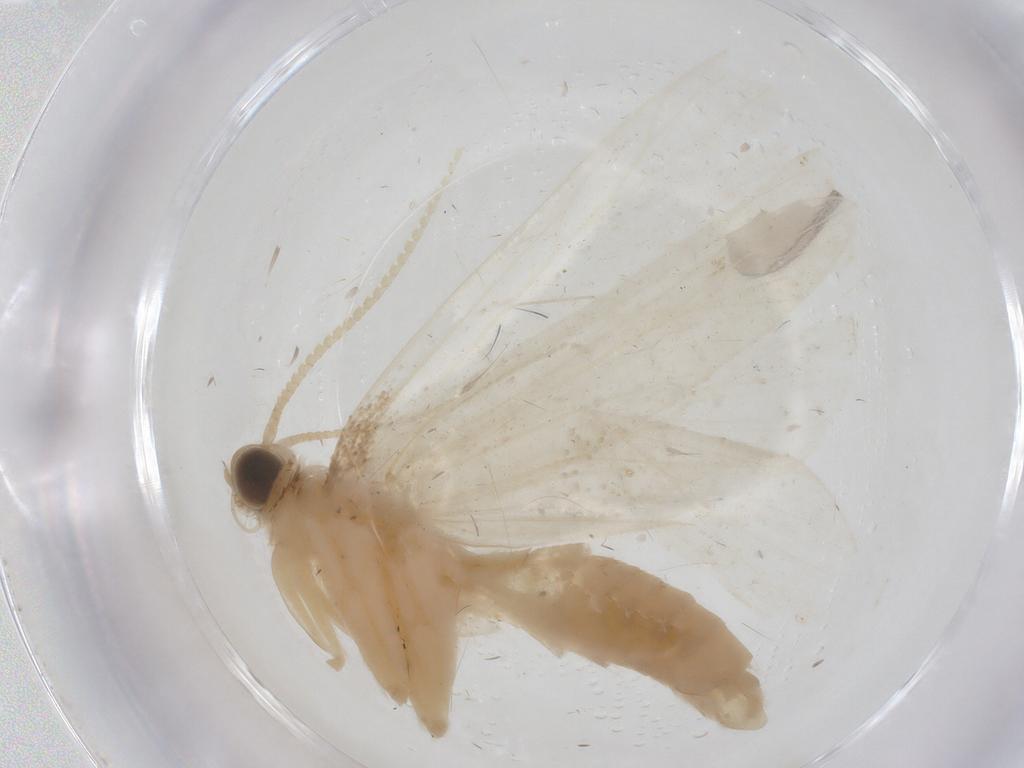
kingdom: Animalia
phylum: Arthropoda
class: Insecta
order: Lepidoptera
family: Crambidae
